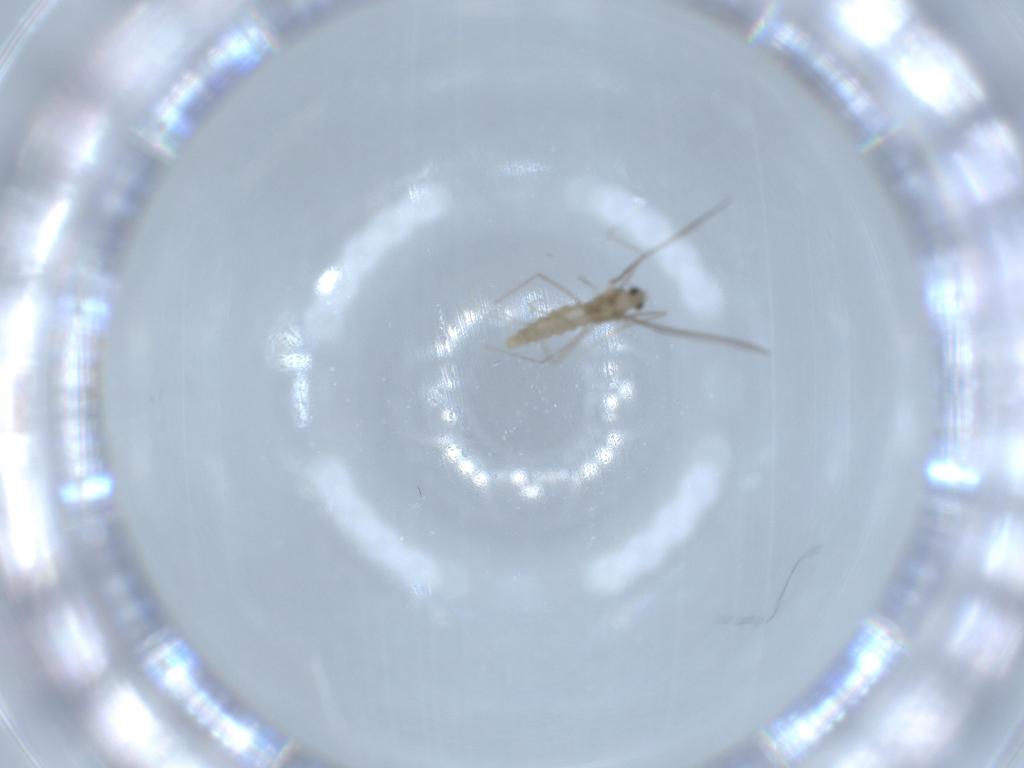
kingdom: Animalia
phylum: Arthropoda
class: Insecta
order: Diptera
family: Cecidomyiidae
